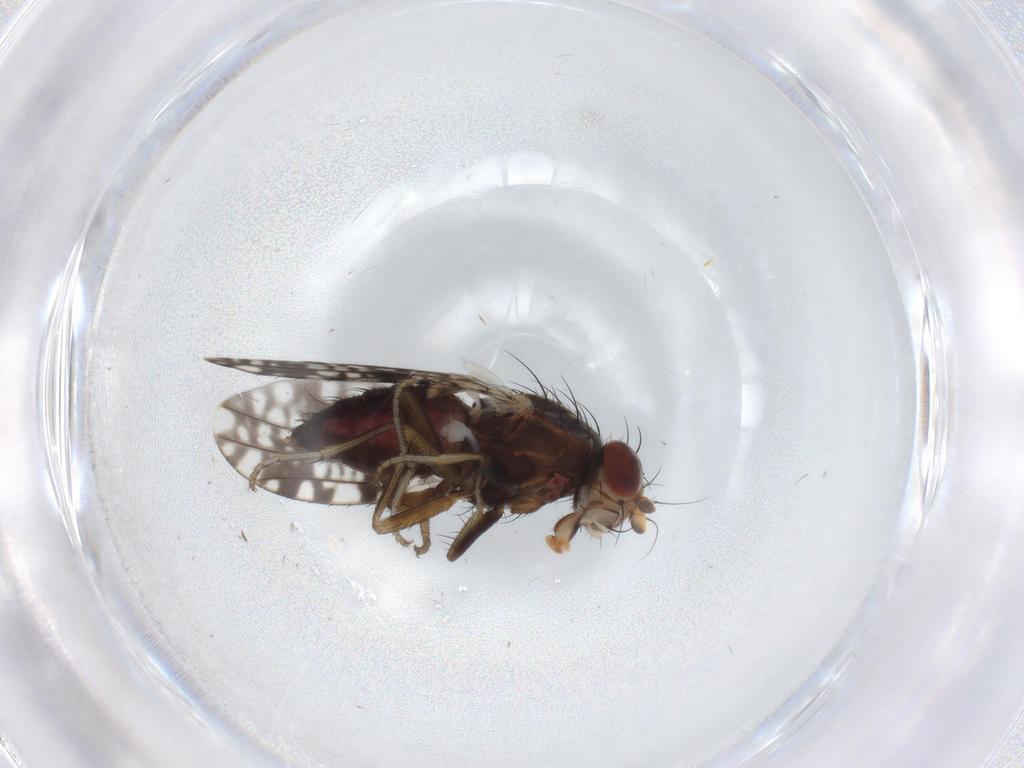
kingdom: Animalia
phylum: Arthropoda
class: Insecta
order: Diptera
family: Tephritidae
